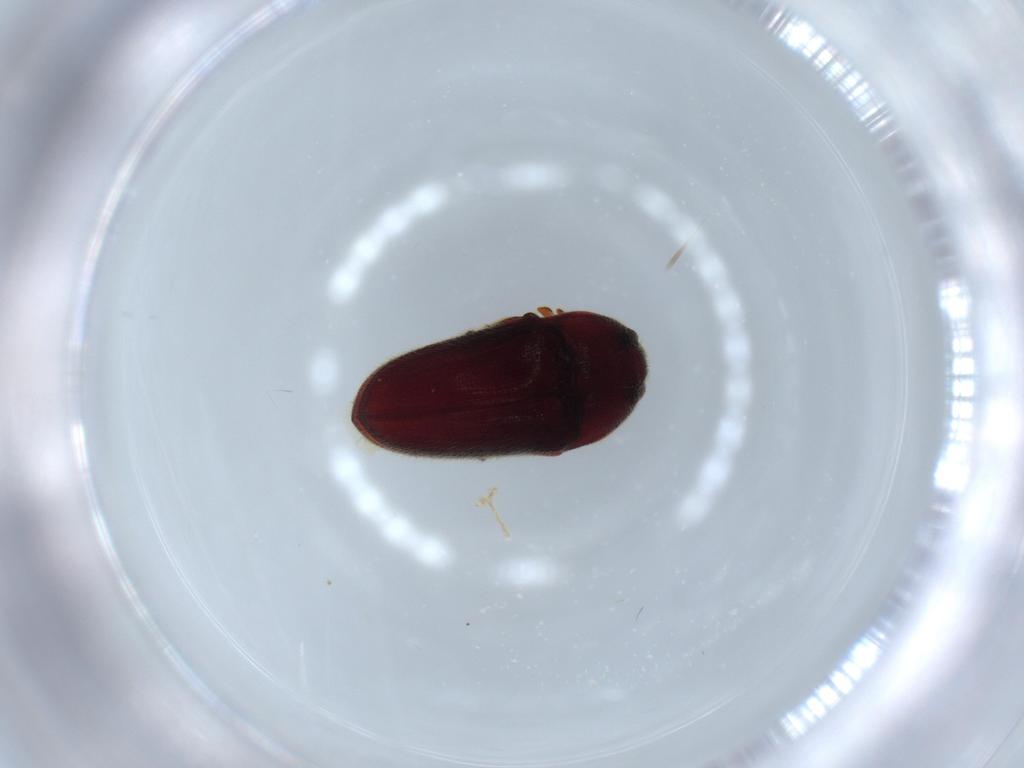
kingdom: Animalia
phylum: Arthropoda
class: Insecta
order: Coleoptera
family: Throscidae
